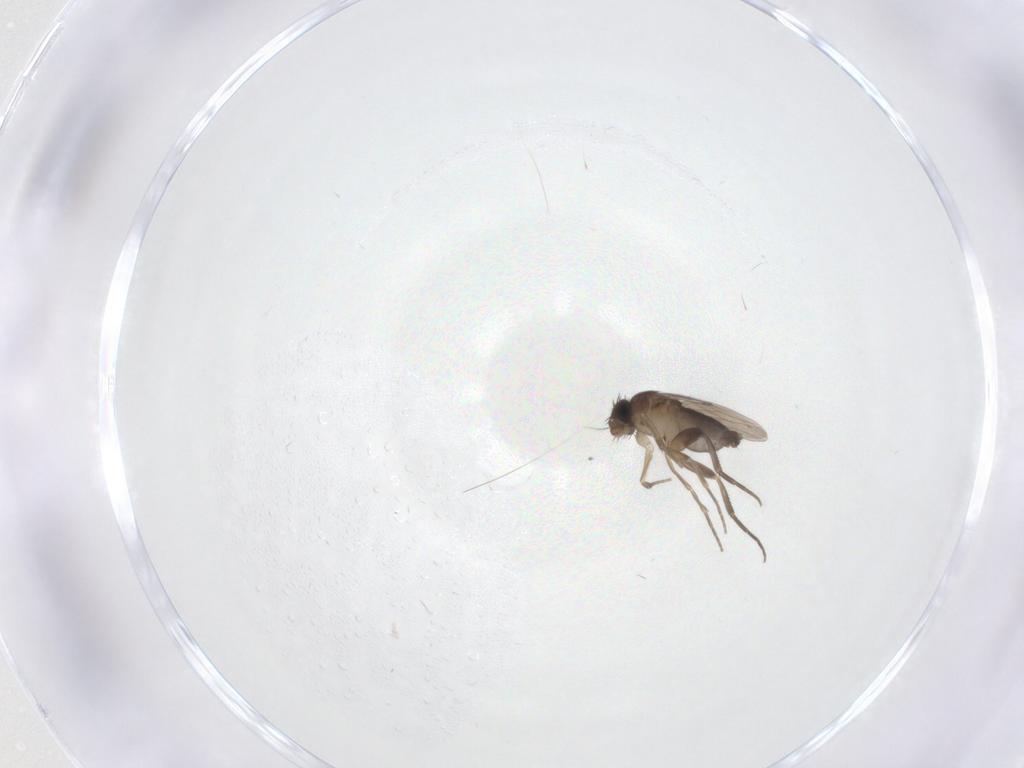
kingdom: Animalia
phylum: Arthropoda
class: Insecta
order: Diptera
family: Phoridae
